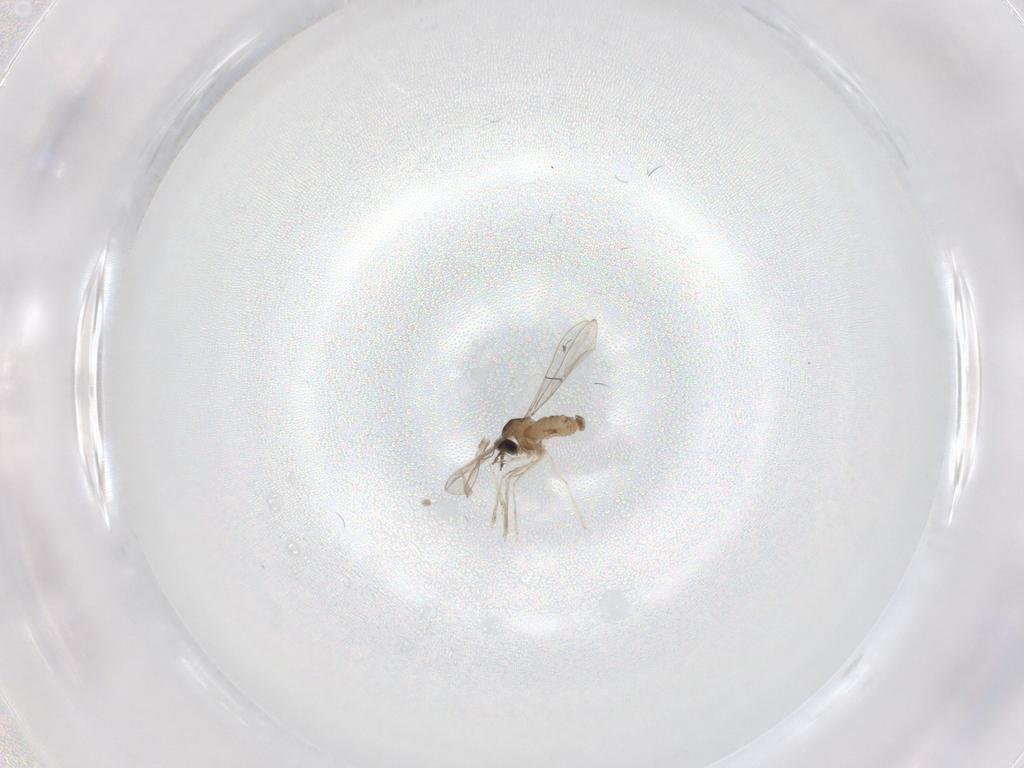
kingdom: Animalia
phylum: Arthropoda
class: Insecta
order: Diptera
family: Cecidomyiidae
